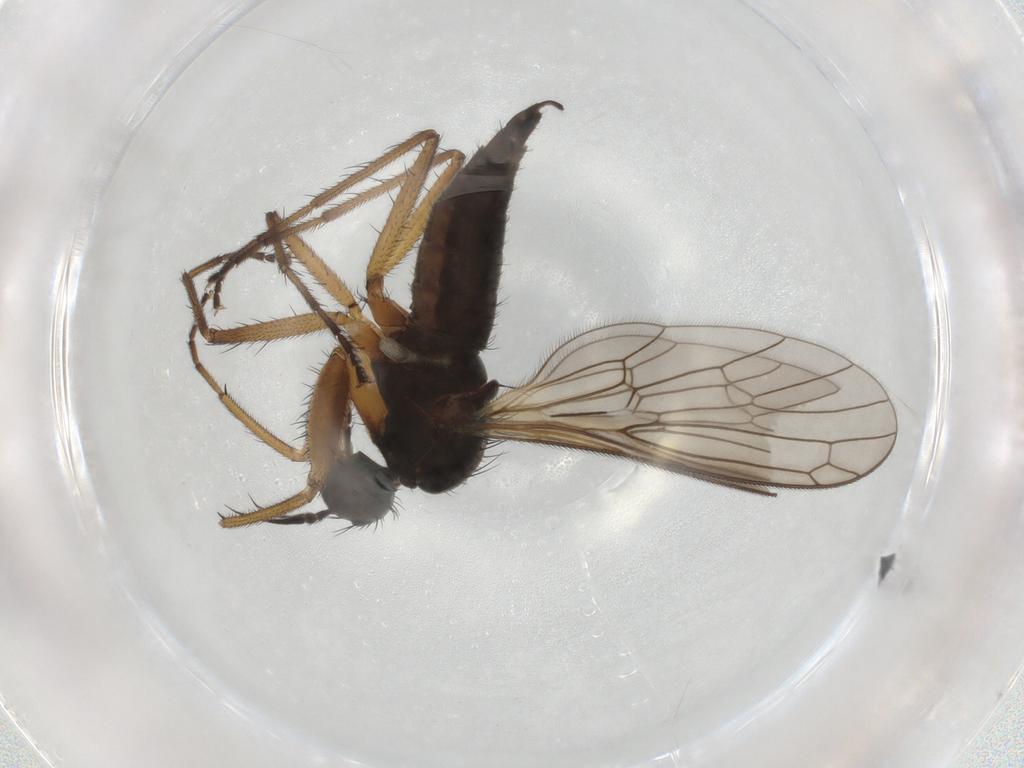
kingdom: Animalia
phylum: Arthropoda
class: Insecta
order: Diptera
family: Empididae
